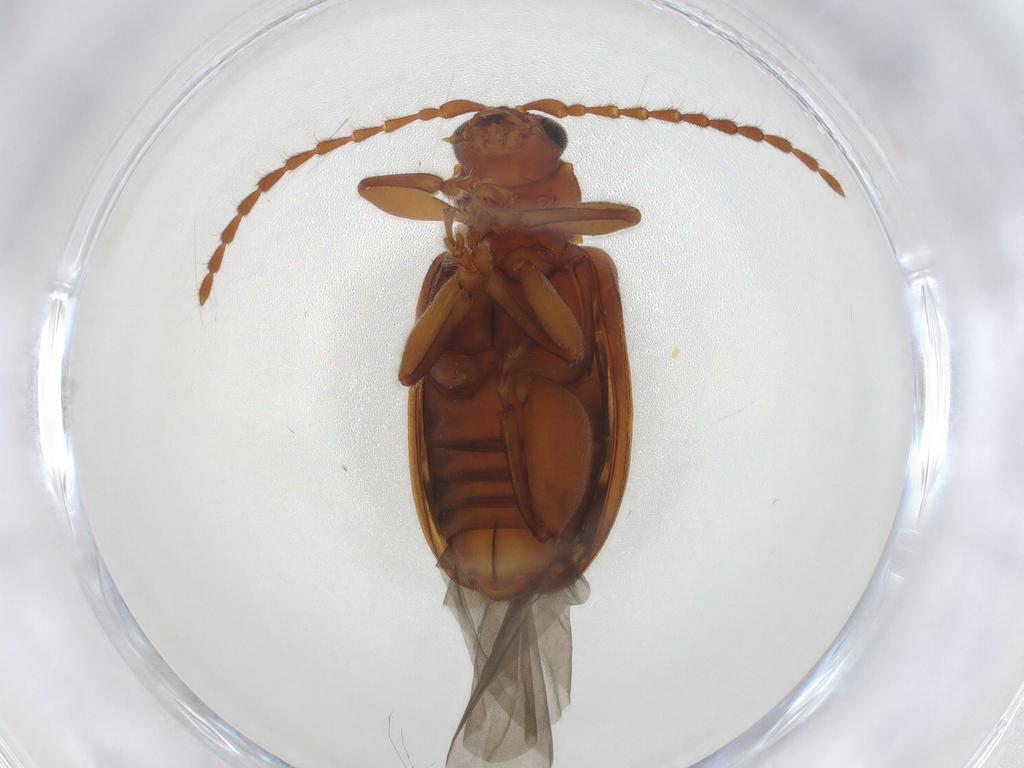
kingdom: Animalia
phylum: Arthropoda
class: Insecta
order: Coleoptera
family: Chrysomelidae
